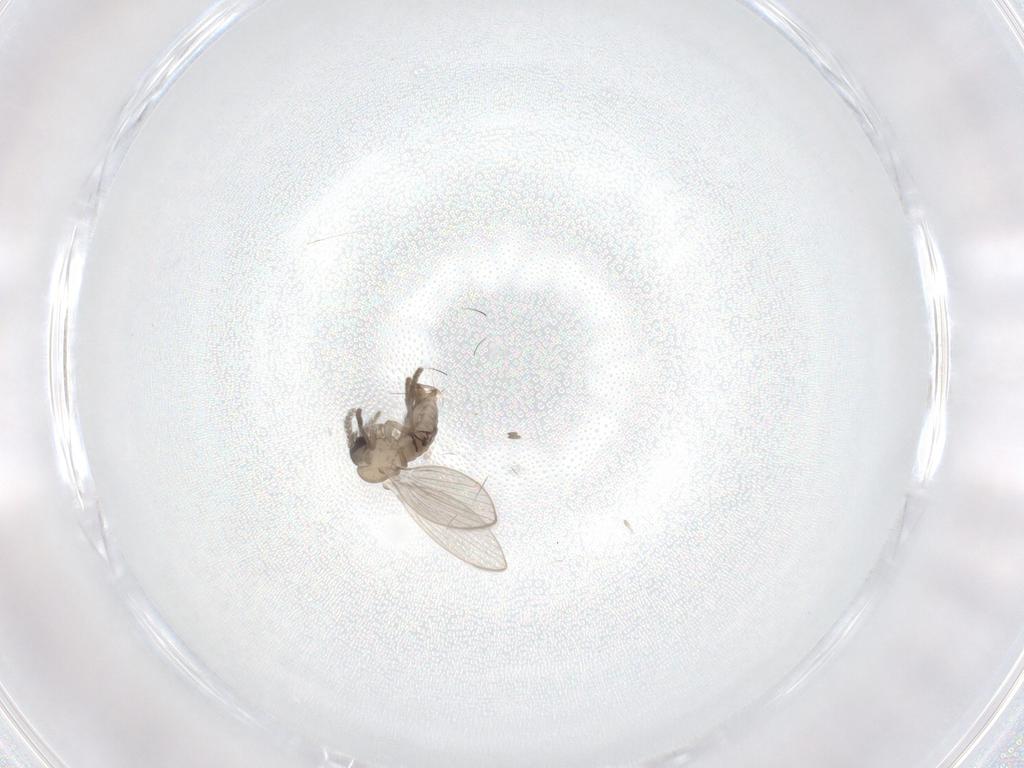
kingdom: Animalia
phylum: Arthropoda
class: Insecta
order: Diptera
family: Psychodidae
